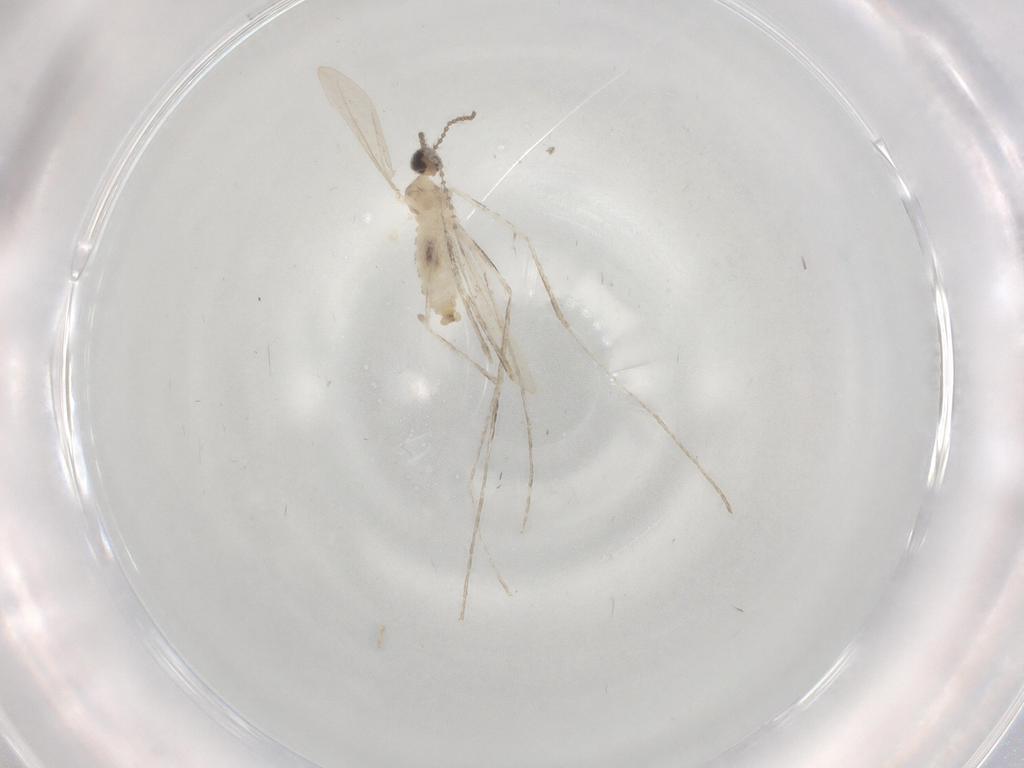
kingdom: Animalia
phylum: Arthropoda
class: Insecta
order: Diptera
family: Cecidomyiidae
